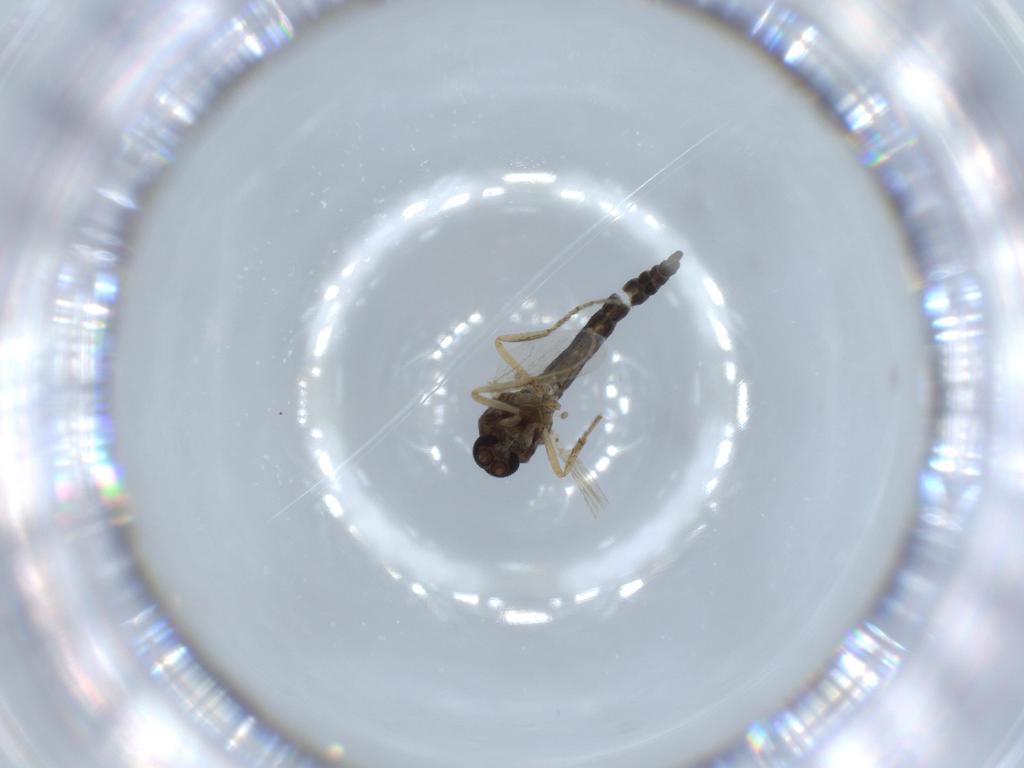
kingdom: Animalia
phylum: Arthropoda
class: Insecta
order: Diptera
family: Ceratopogonidae
